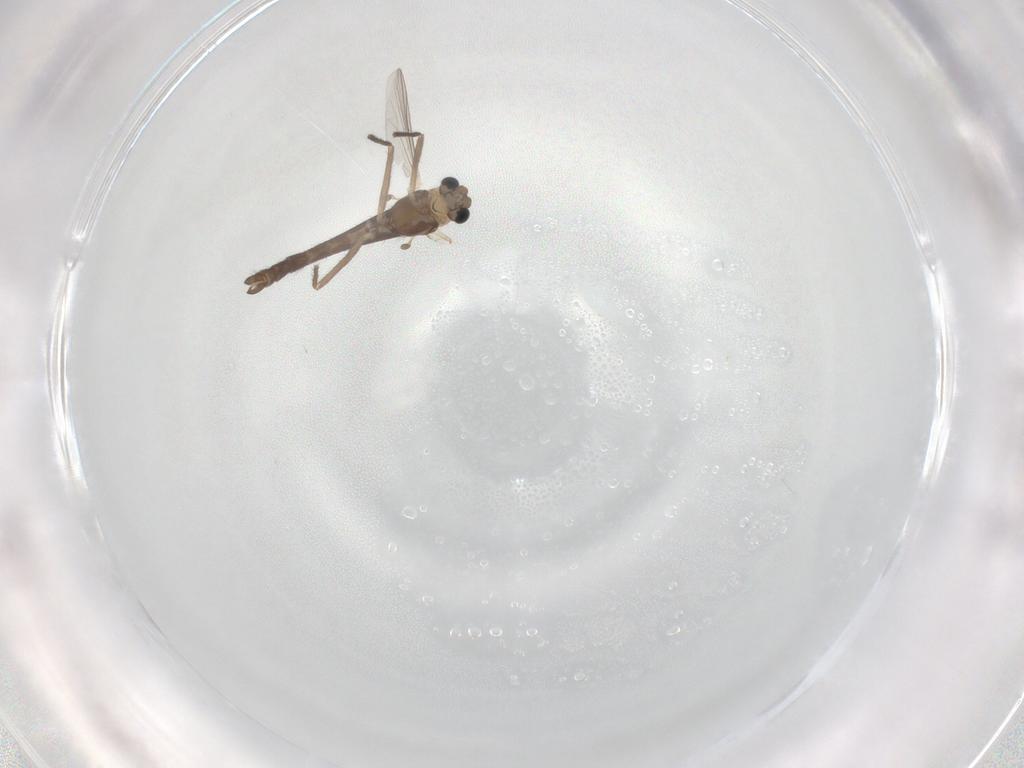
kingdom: Animalia
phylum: Arthropoda
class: Insecta
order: Diptera
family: Chironomidae
